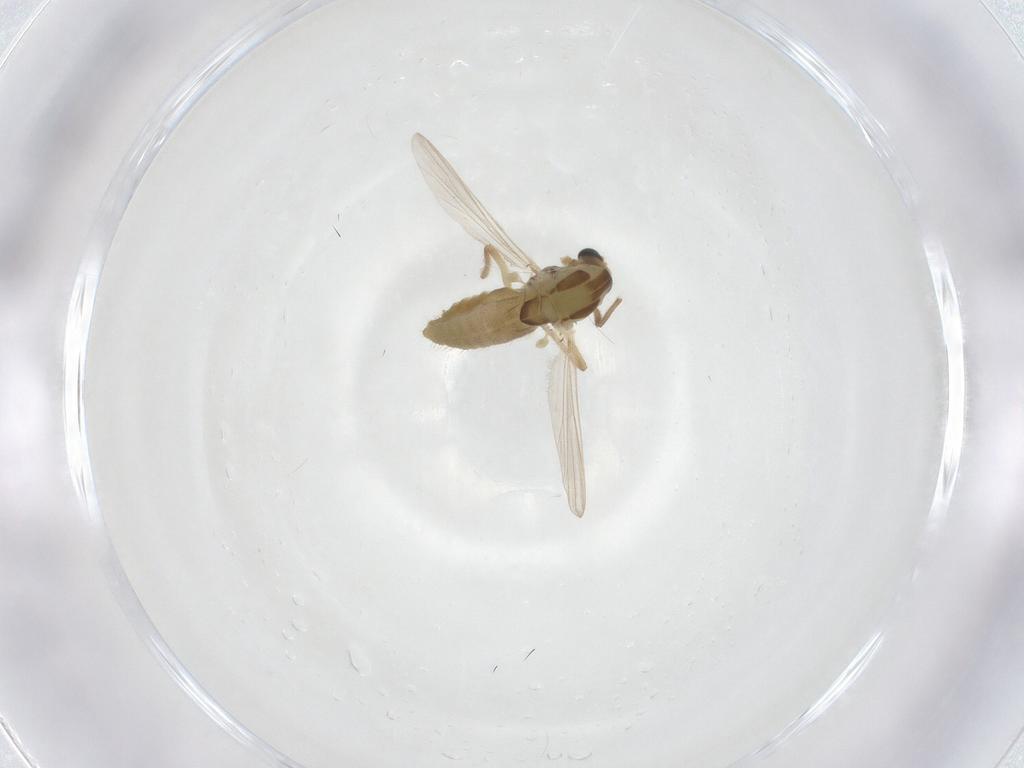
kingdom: Animalia
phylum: Arthropoda
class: Insecta
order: Diptera
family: Chironomidae
